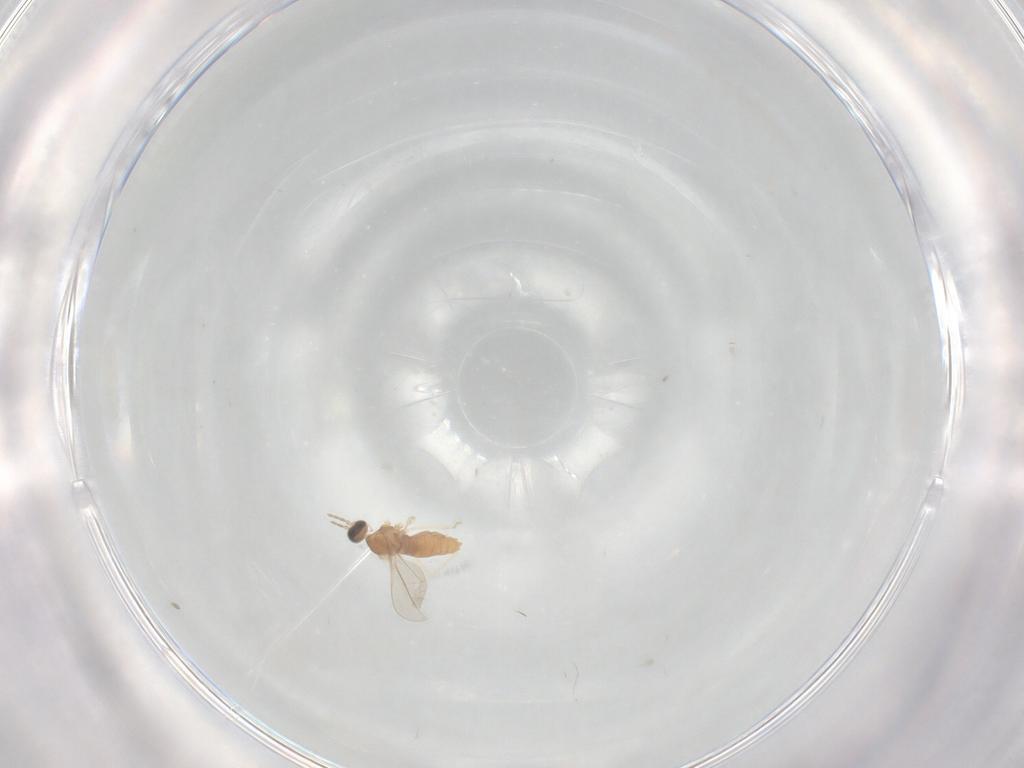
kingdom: Animalia
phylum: Arthropoda
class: Insecta
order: Diptera
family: Cecidomyiidae
